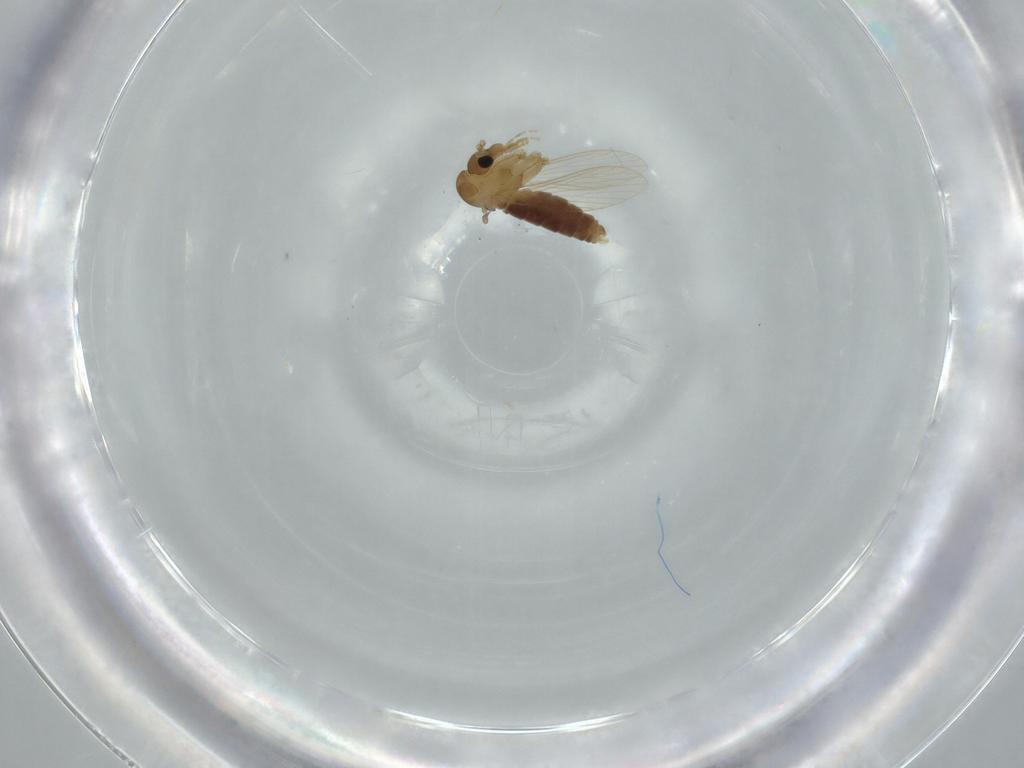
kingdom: Animalia
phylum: Arthropoda
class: Insecta
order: Diptera
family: Psychodidae
